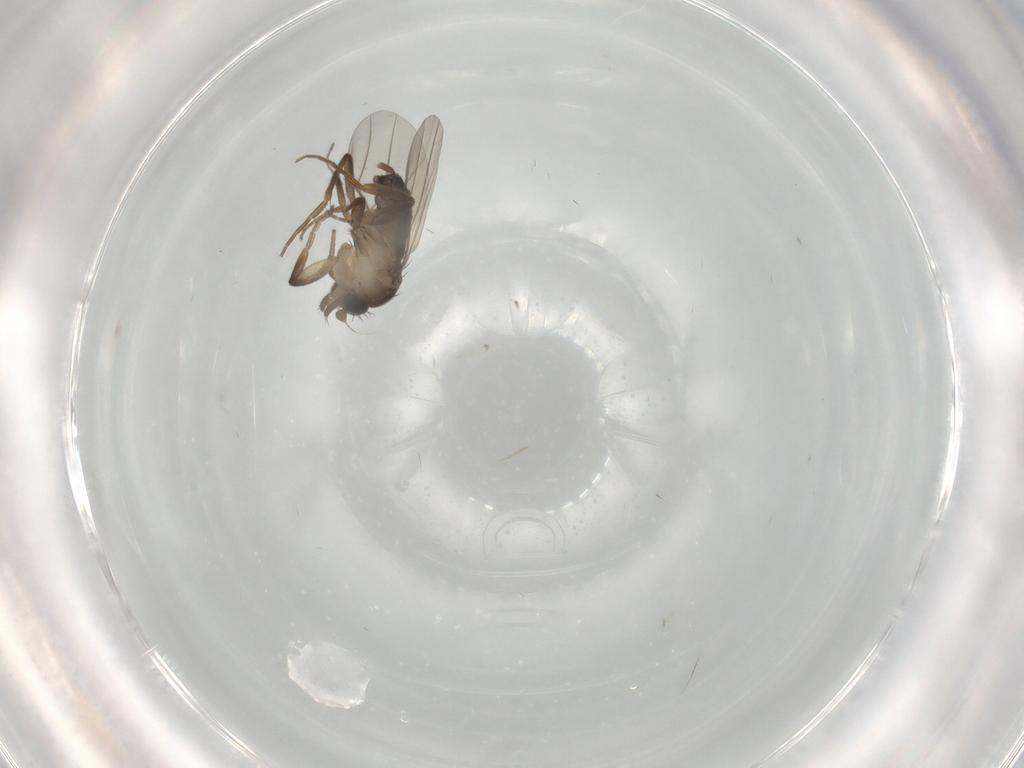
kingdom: Animalia
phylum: Arthropoda
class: Insecta
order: Diptera
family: Phoridae
